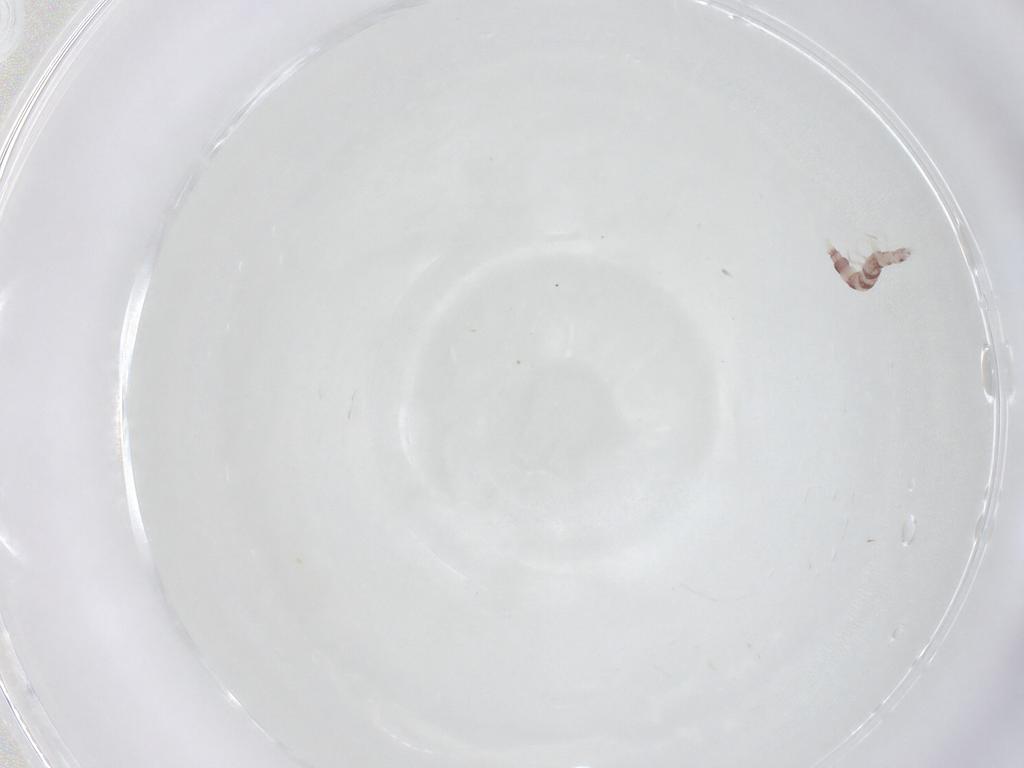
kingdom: Animalia
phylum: Arthropoda
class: Insecta
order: Neuroptera
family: Berothidae
